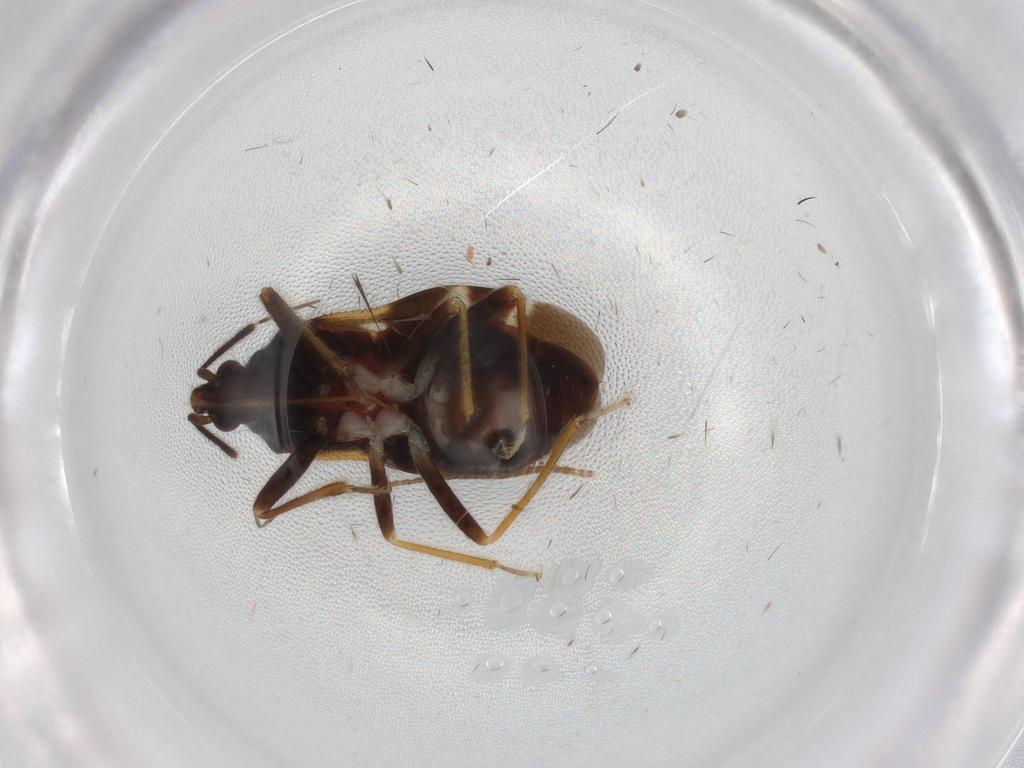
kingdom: Animalia
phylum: Arthropoda
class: Insecta
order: Hemiptera
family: Anthocoridae
